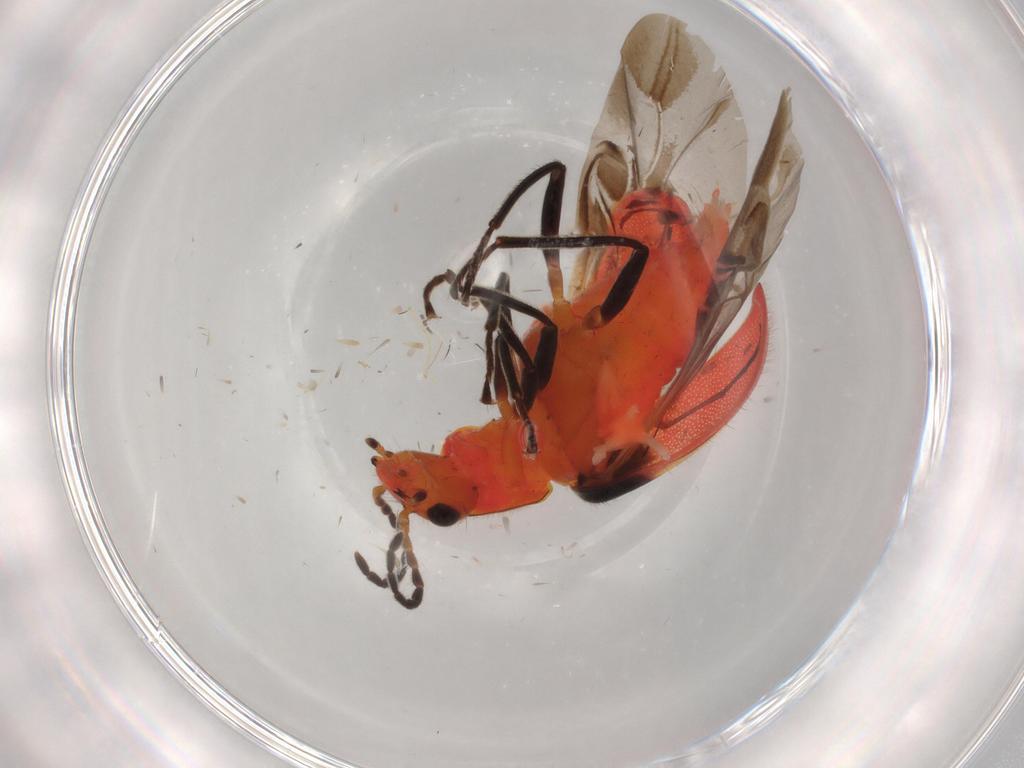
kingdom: Animalia
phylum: Arthropoda
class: Insecta
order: Coleoptera
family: Melyridae
